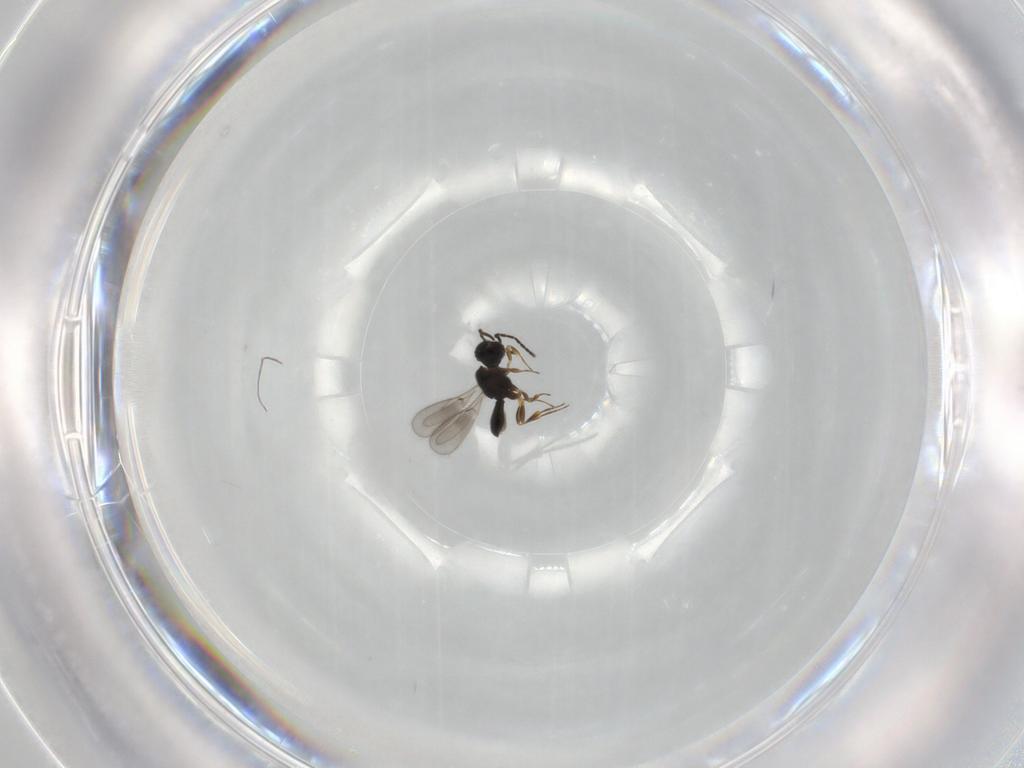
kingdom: Animalia
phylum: Arthropoda
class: Insecta
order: Hymenoptera
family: Scelionidae
